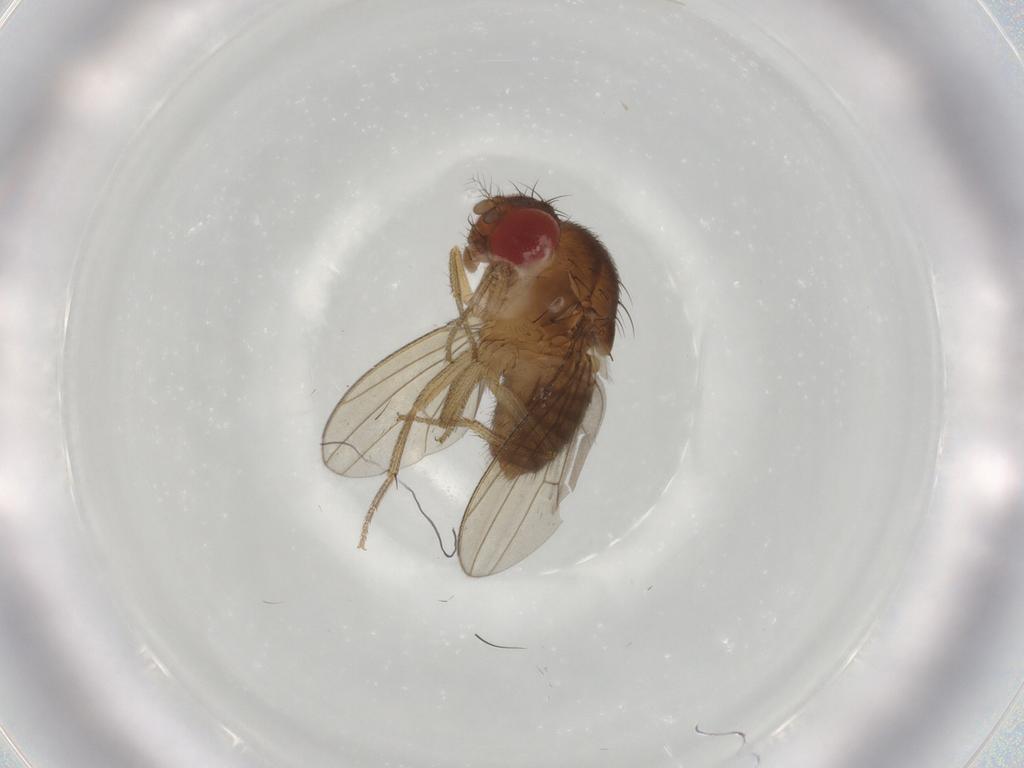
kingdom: Animalia
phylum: Arthropoda
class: Insecta
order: Diptera
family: Drosophilidae
